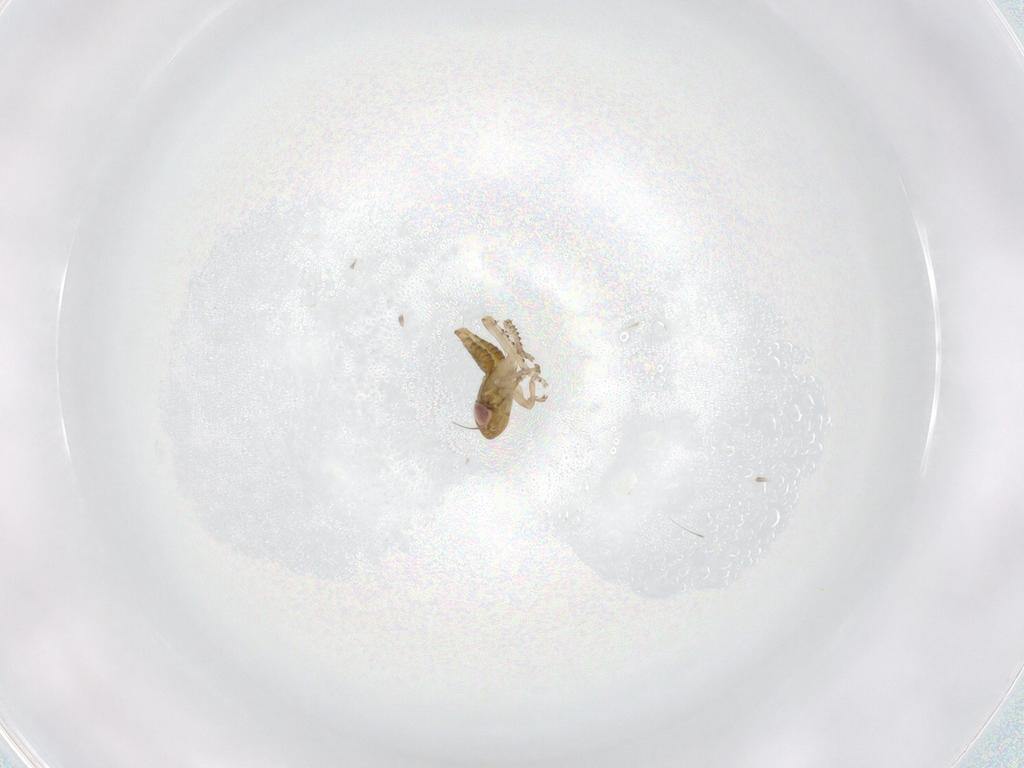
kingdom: Animalia
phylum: Arthropoda
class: Insecta
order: Hemiptera
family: Cicadellidae
